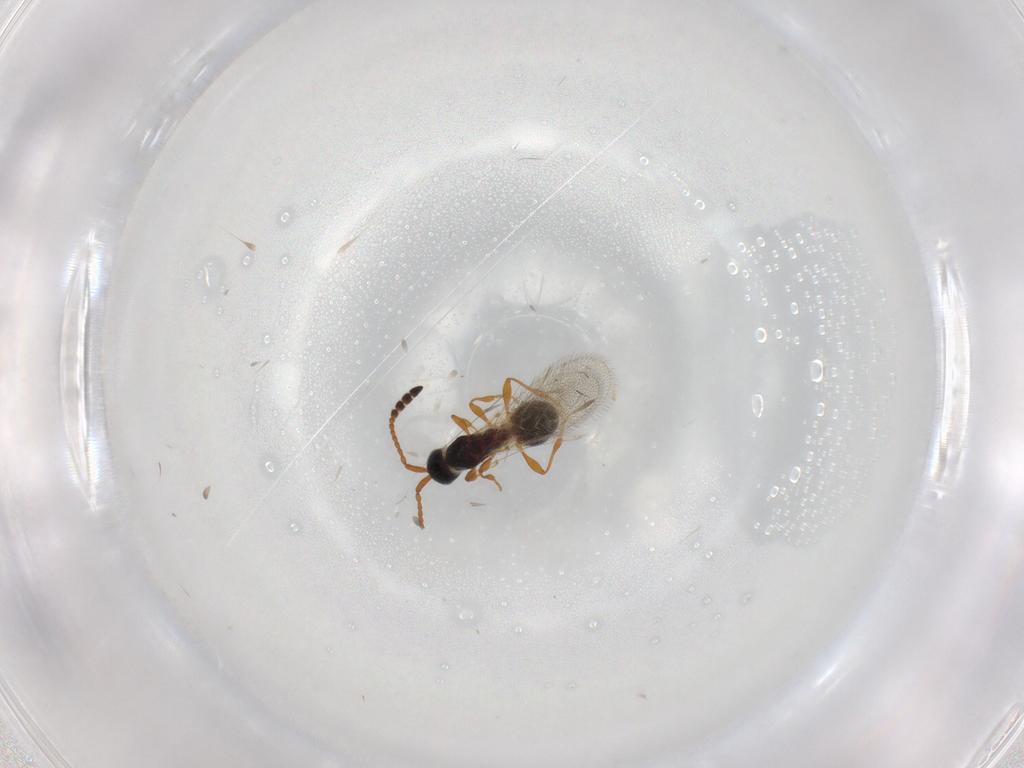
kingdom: Animalia
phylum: Arthropoda
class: Insecta
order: Hymenoptera
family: Diapriidae
